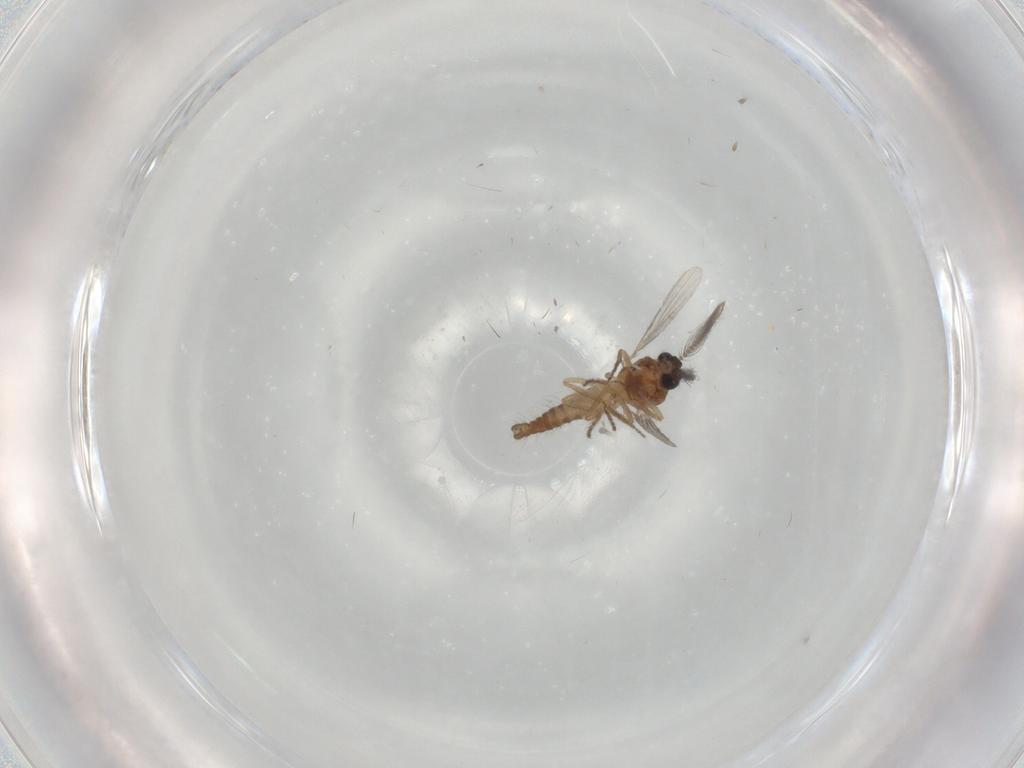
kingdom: Animalia
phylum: Arthropoda
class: Insecta
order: Diptera
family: Ceratopogonidae
